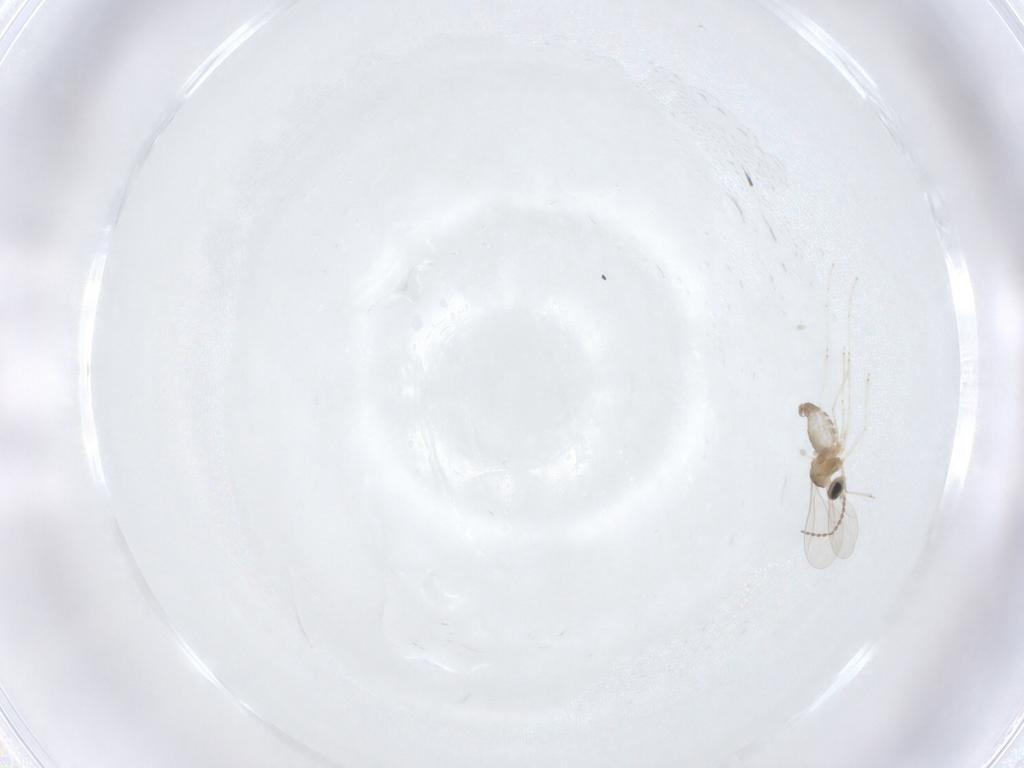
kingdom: Animalia
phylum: Arthropoda
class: Insecta
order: Diptera
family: Cecidomyiidae
